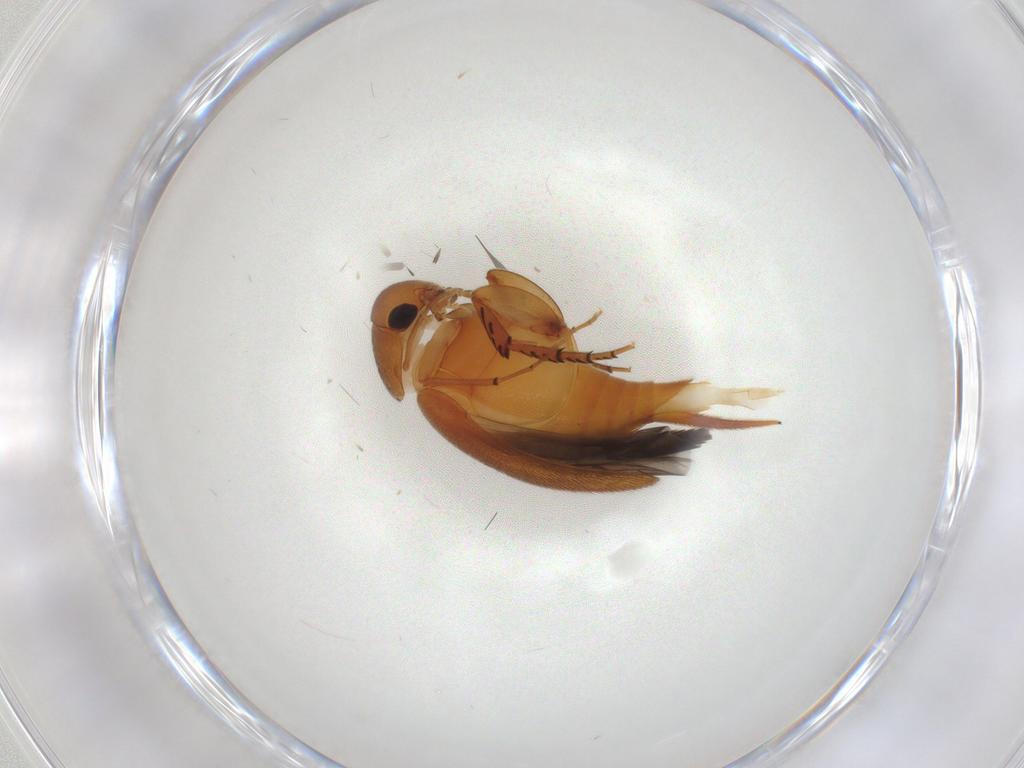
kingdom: Animalia
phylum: Arthropoda
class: Insecta
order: Coleoptera
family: Mordellidae
